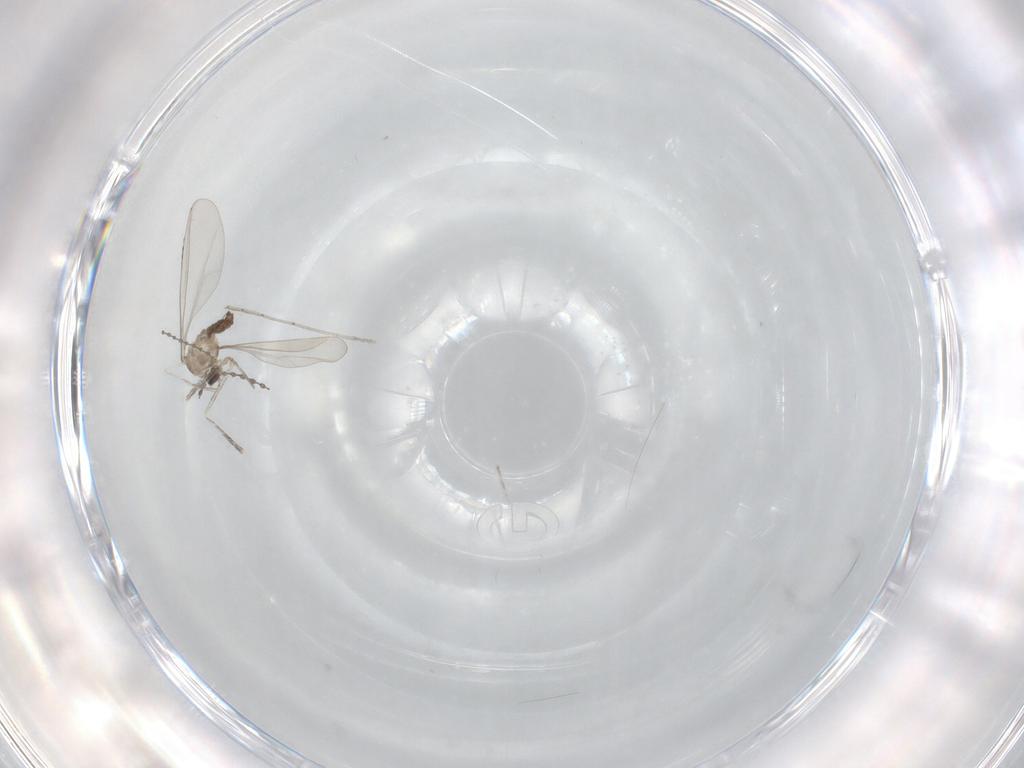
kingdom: Animalia
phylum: Arthropoda
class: Insecta
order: Diptera
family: Cecidomyiidae
